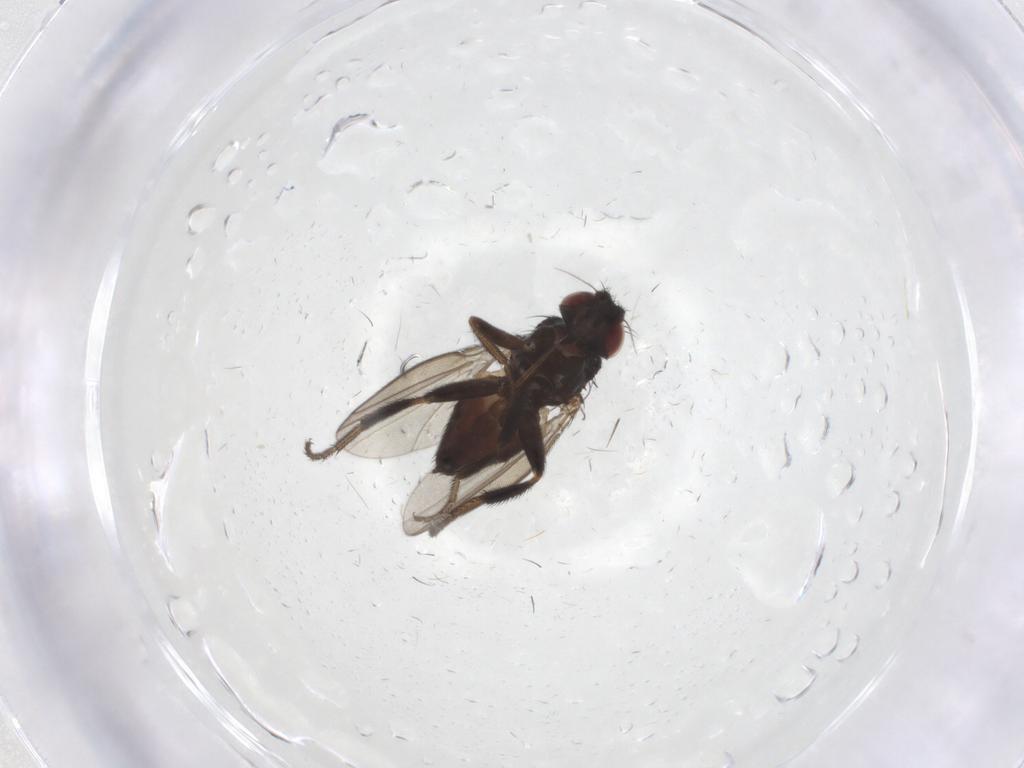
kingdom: Animalia
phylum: Arthropoda
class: Insecta
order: Diptera
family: Milichiidae
